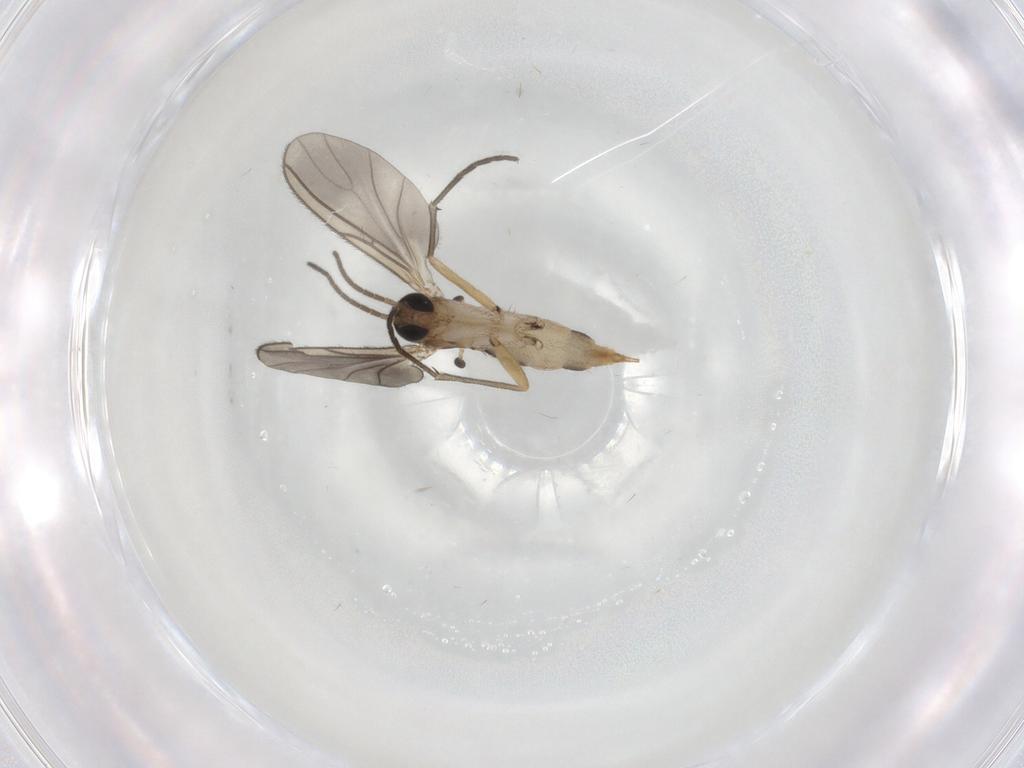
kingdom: Animalia
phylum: Arthropoda
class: Insecta
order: Diptera
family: Sciaridae
